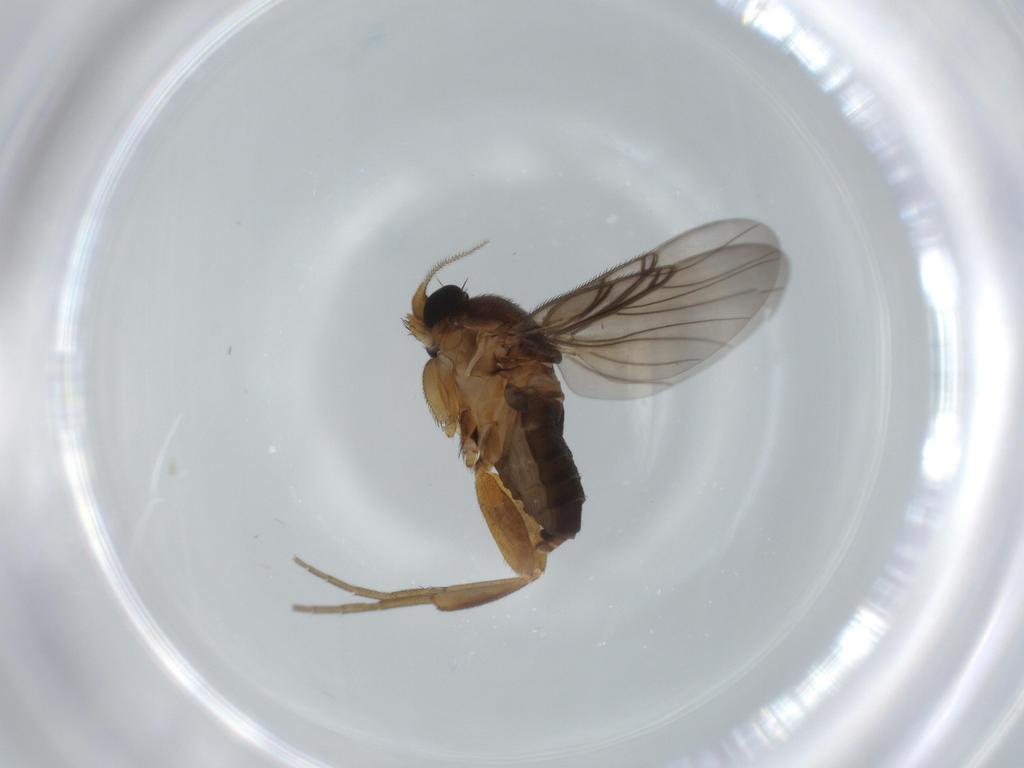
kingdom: Animalia
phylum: Arthropoda
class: Insecta
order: Diptera
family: Phoridae
